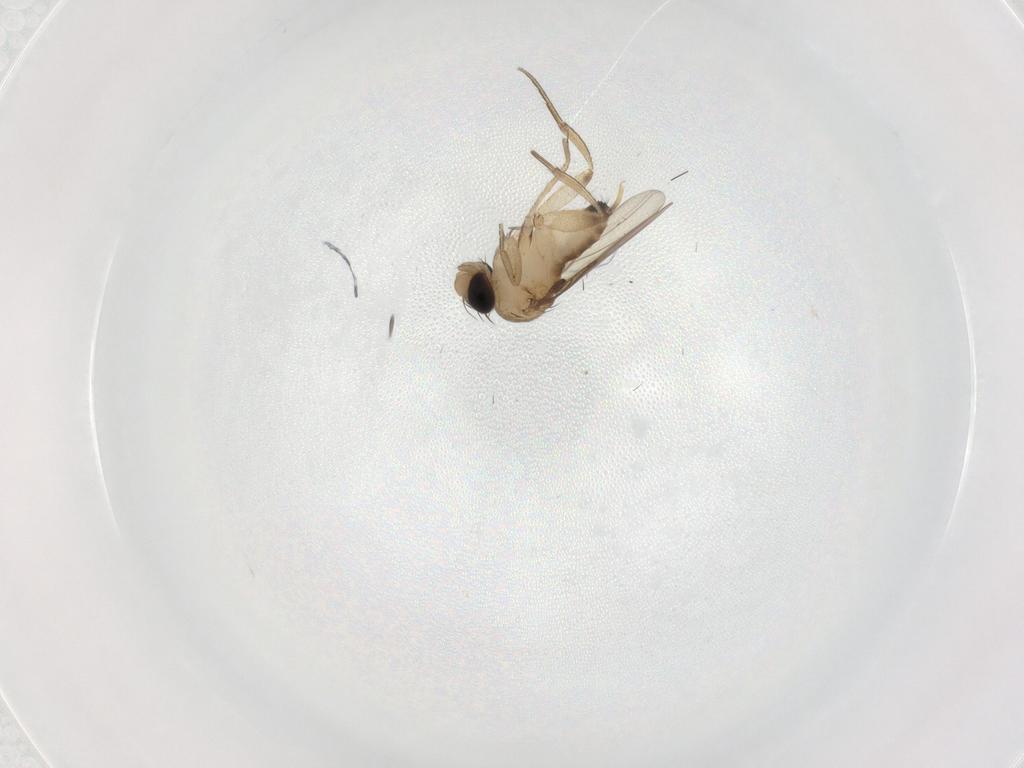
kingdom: Animalia
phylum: Arthropoda
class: Insecta
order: Diptera
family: Phoridae
